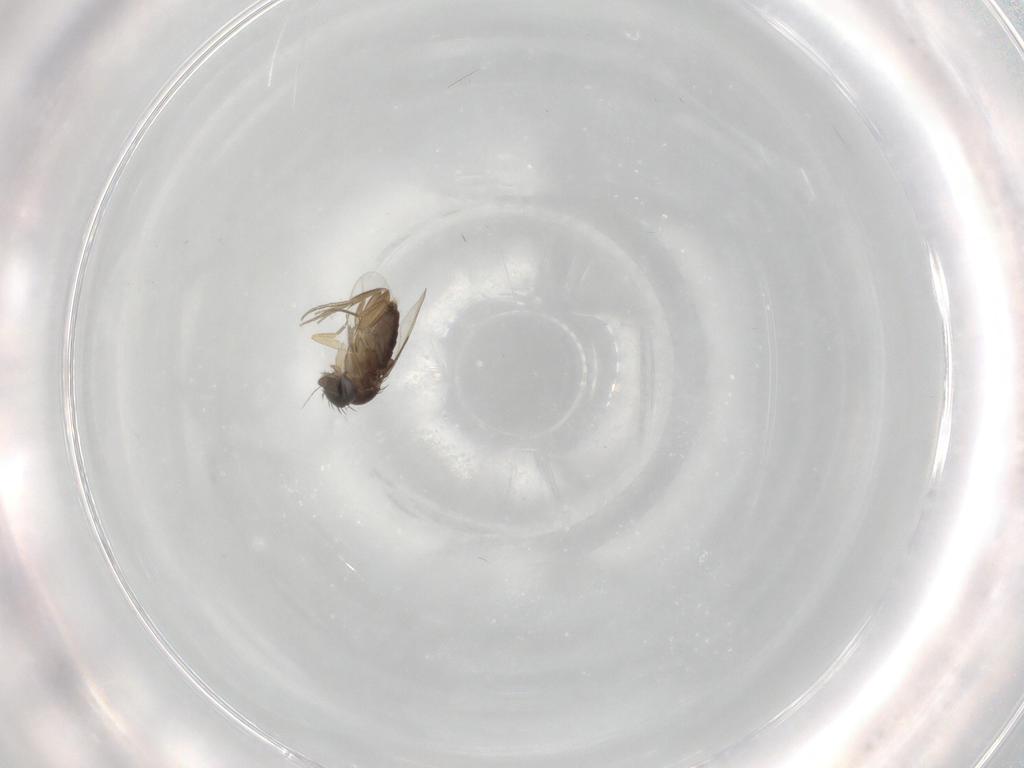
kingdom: Animalia
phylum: Arthropoda
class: Insecta
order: Diptera
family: Phoridae
